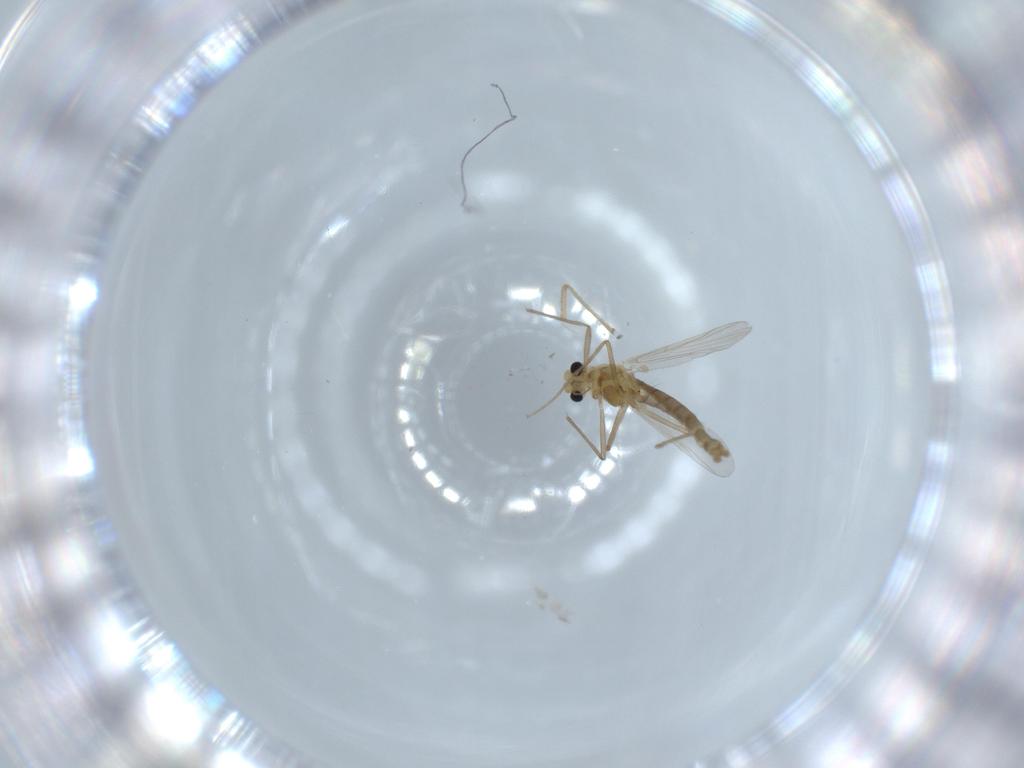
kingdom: Animalia
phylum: Arthropoda
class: Insecta
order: Diptera
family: Chironomidae
